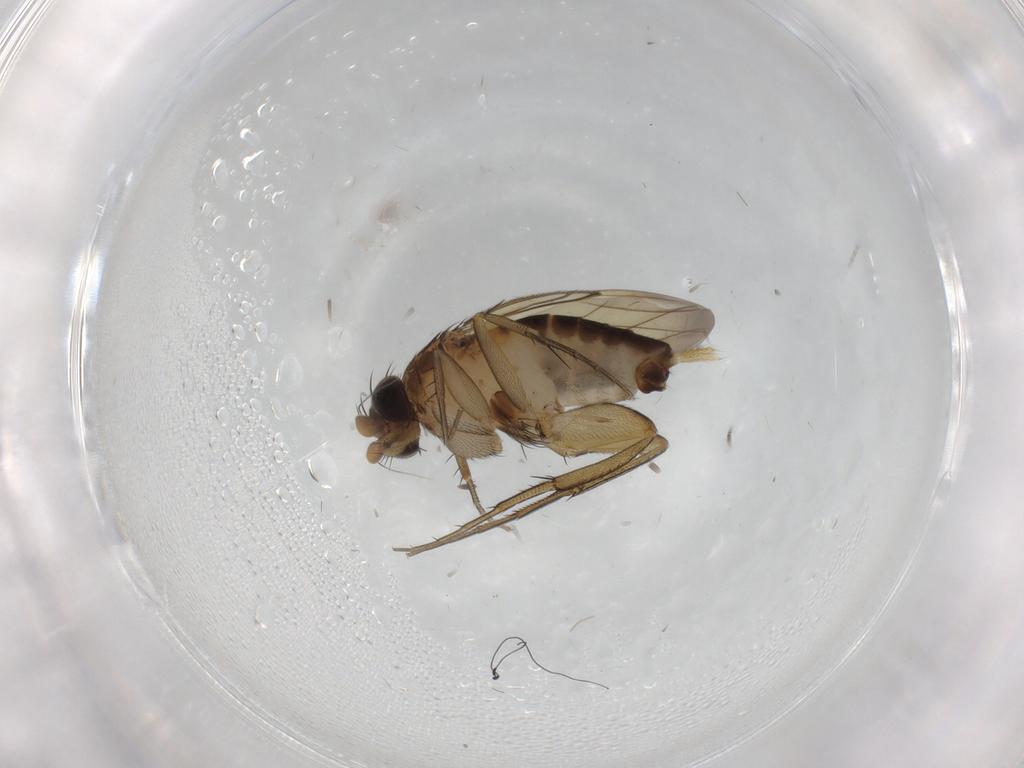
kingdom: Animalia
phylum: Arthropoda
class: Insecta
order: Diptera
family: Phoridae
